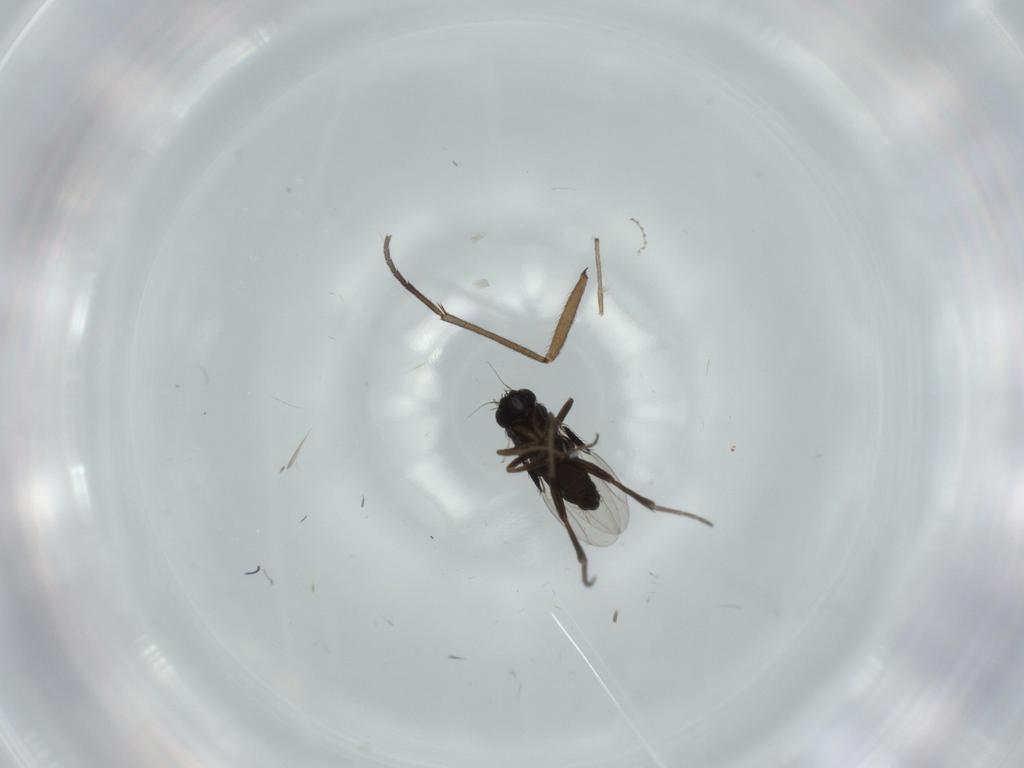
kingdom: Animalia
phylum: Arthropoda
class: Insecta
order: Diptera
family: Phoridae
